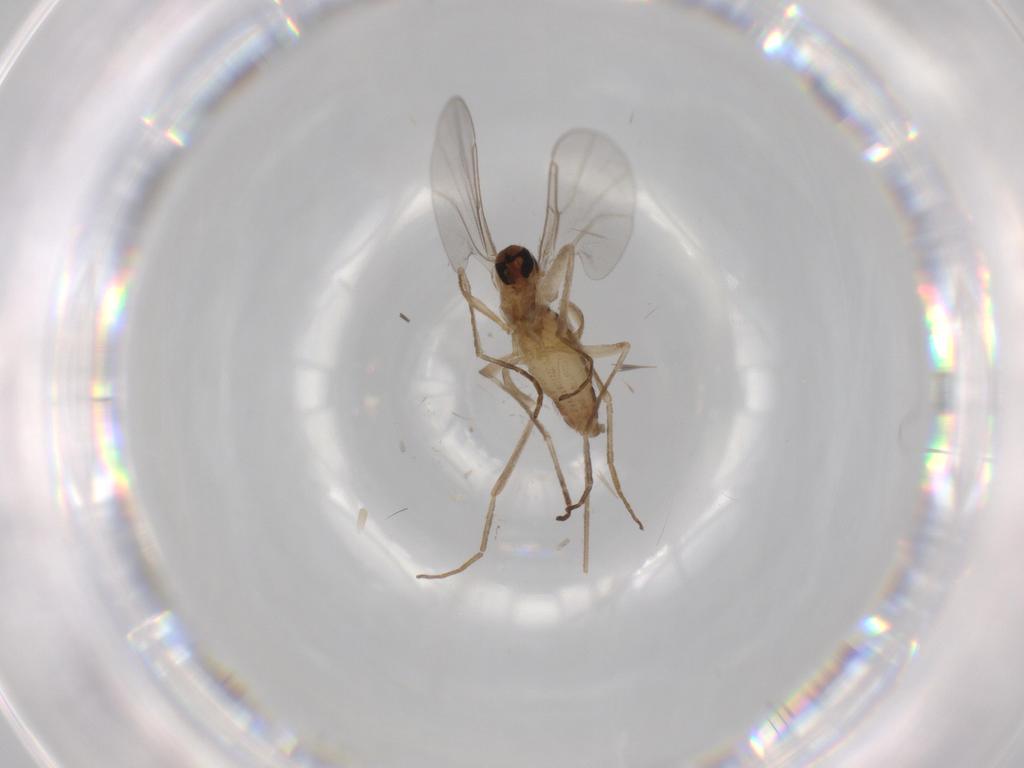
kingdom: Animalia
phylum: Arthropoda
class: Insecta
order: Diptera
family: Cecidomyiidae
